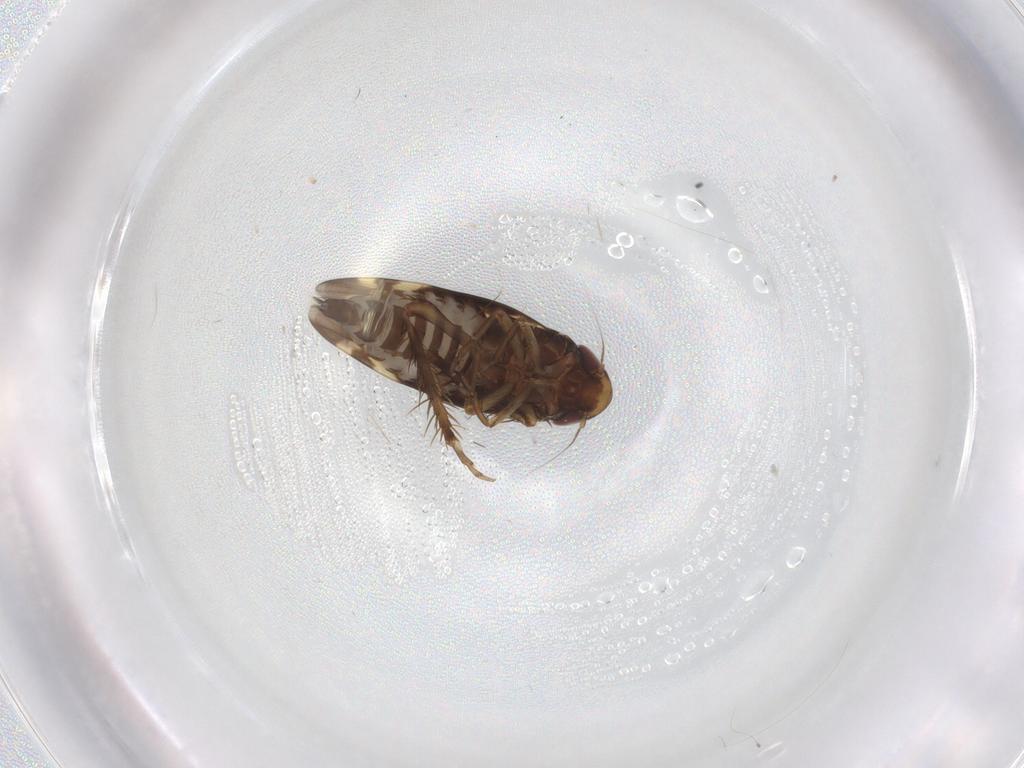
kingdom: Animalia
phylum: Arthropoda
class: Insecta
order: Hemiptera
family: Cicadellidae
